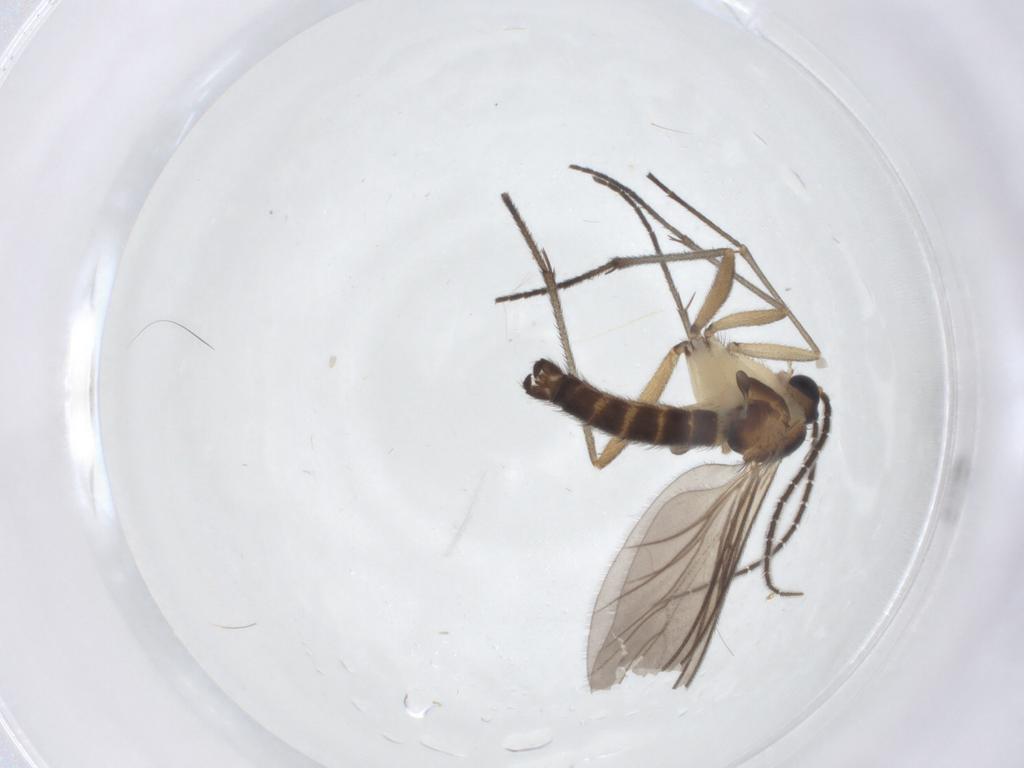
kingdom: Animalia
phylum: Arthropoda
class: Insecta
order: Diptera
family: Sciaridae
